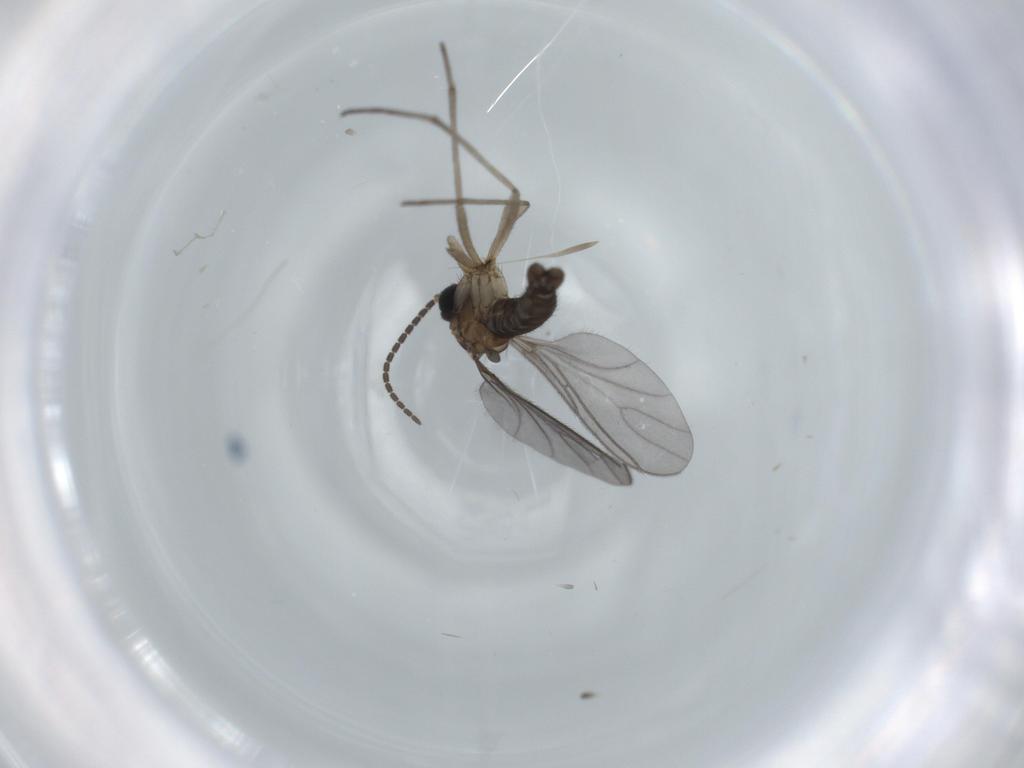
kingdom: Animalia
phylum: Arthropoda
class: Insecta
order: Diptera
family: Sciaridae
